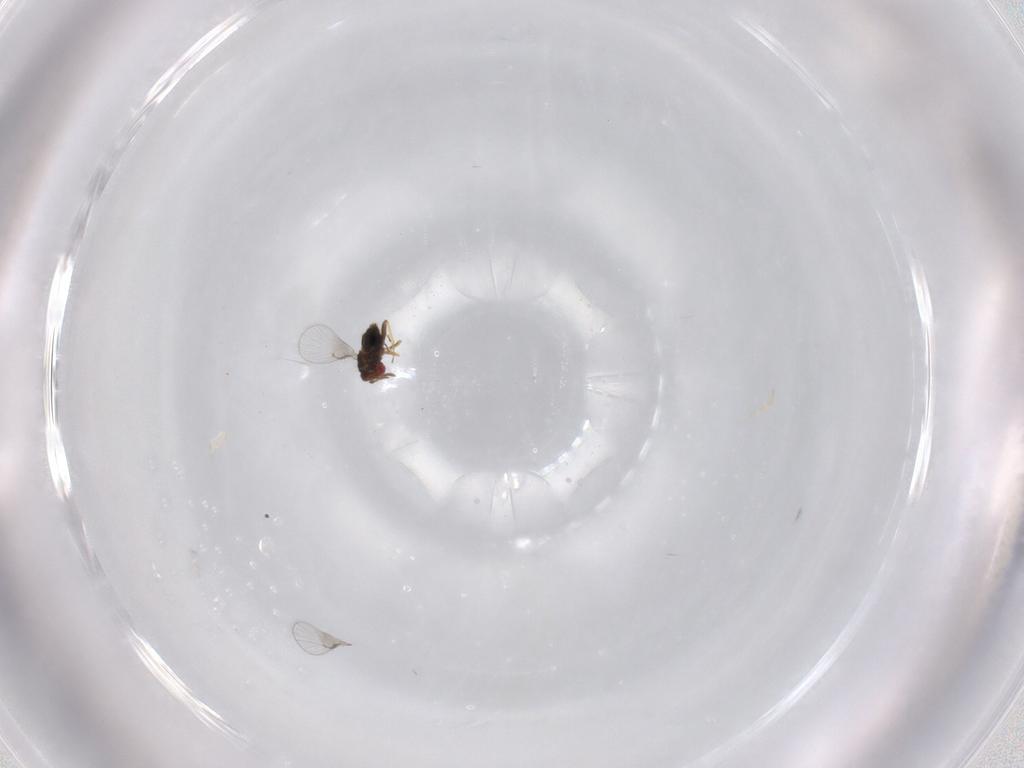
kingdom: Animalia
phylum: Arthropoda
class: Insecta
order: Hymenoptera
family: Trichogrammatidae
